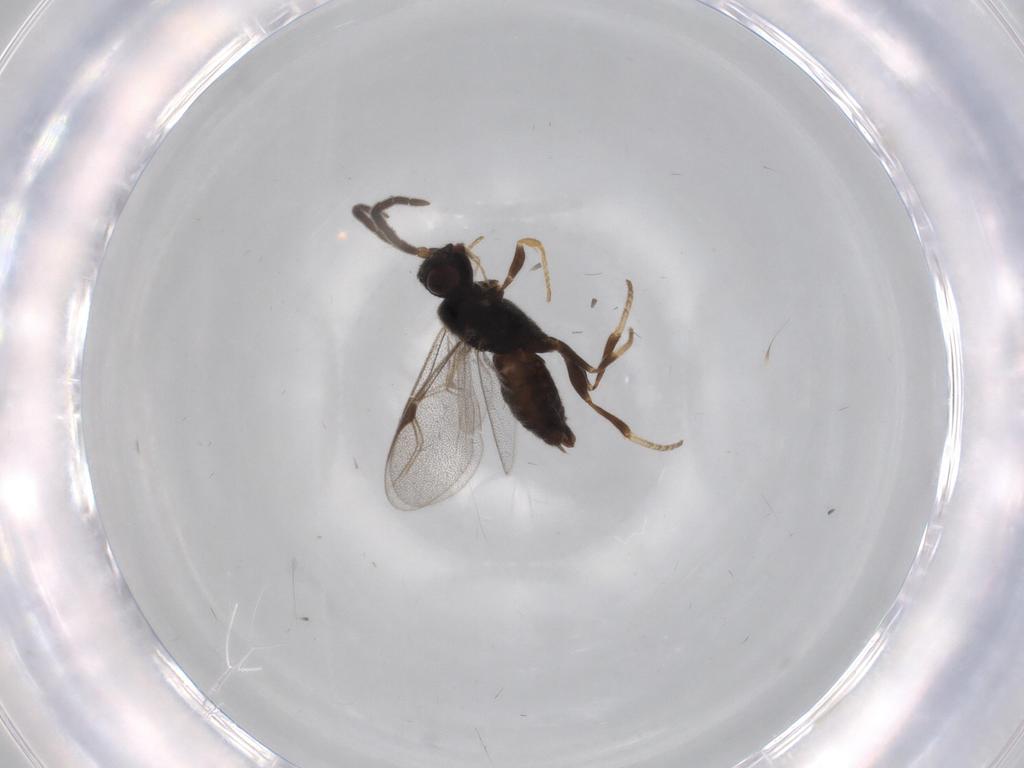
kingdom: Animalia
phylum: Arthropoda
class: Insecta
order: Hymenoptera
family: Dryinidae
